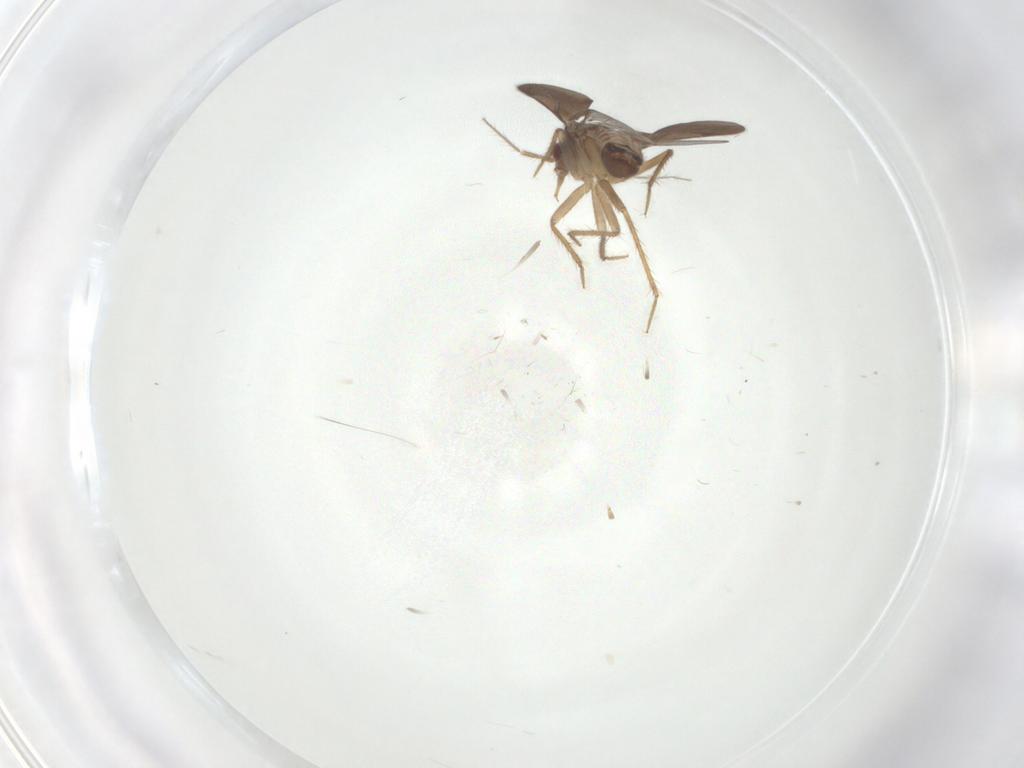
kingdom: Animalia
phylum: Arthropoda
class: Insecta
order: Hemiptera
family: Ceratocombidae
